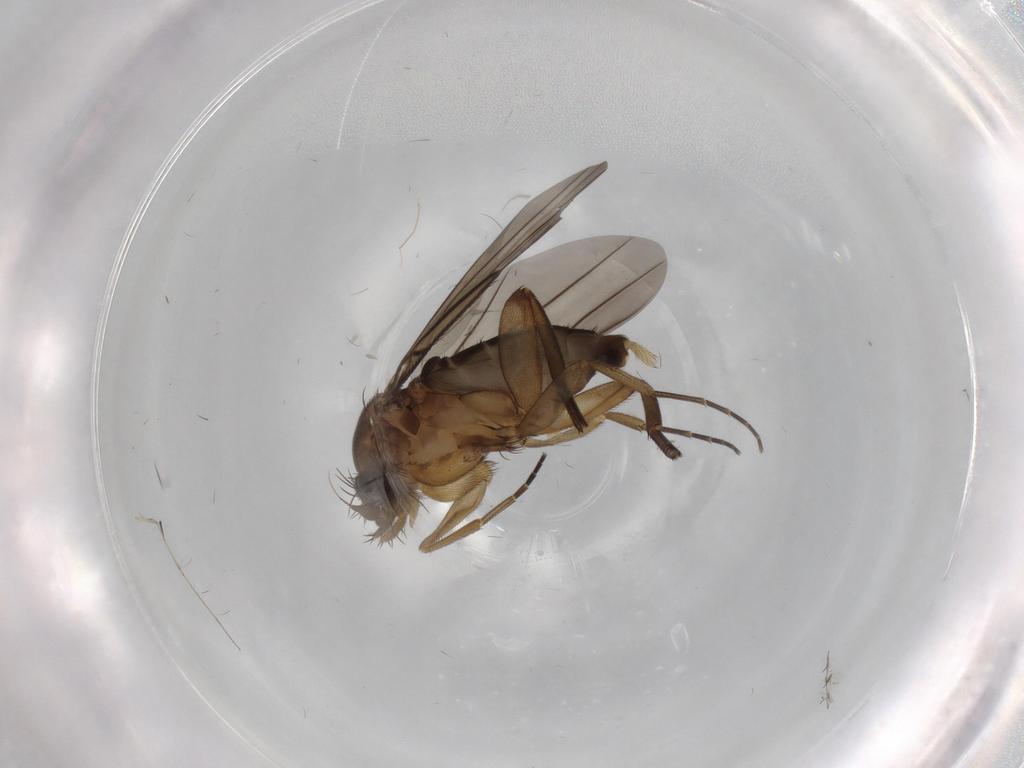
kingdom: Animalia
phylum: Arthropoda
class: Insecta
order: Diptera
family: Phoridae
